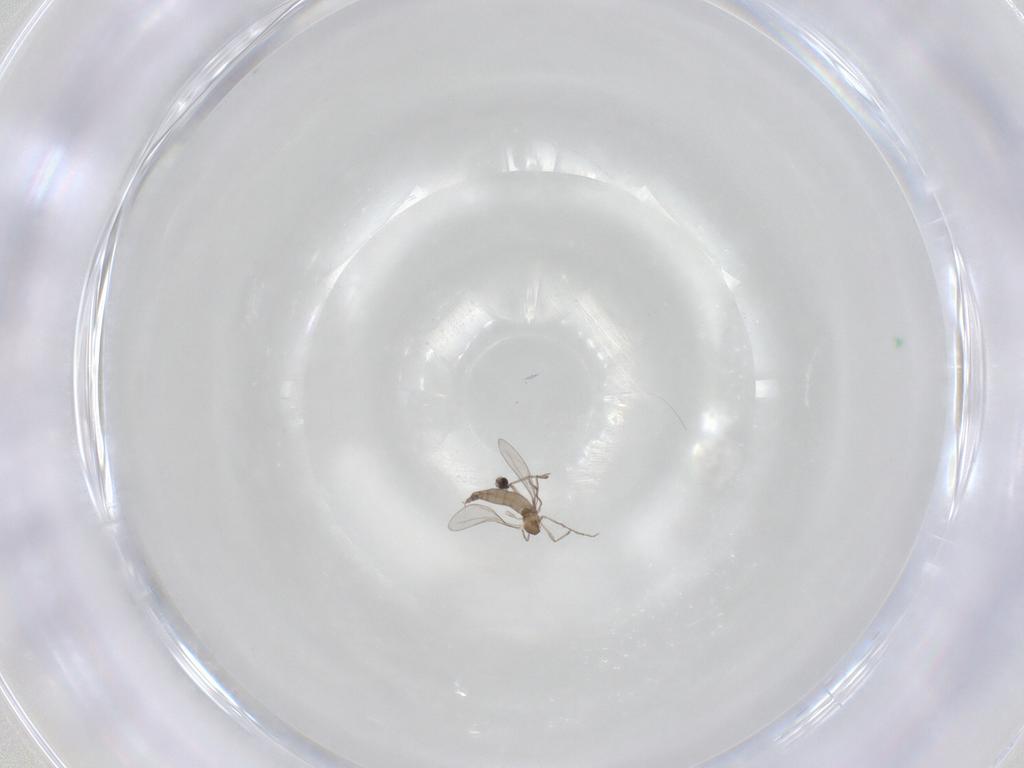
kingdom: Animalia
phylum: Arthropoda
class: Insecta
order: Diptera
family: Cecidomyiidae
